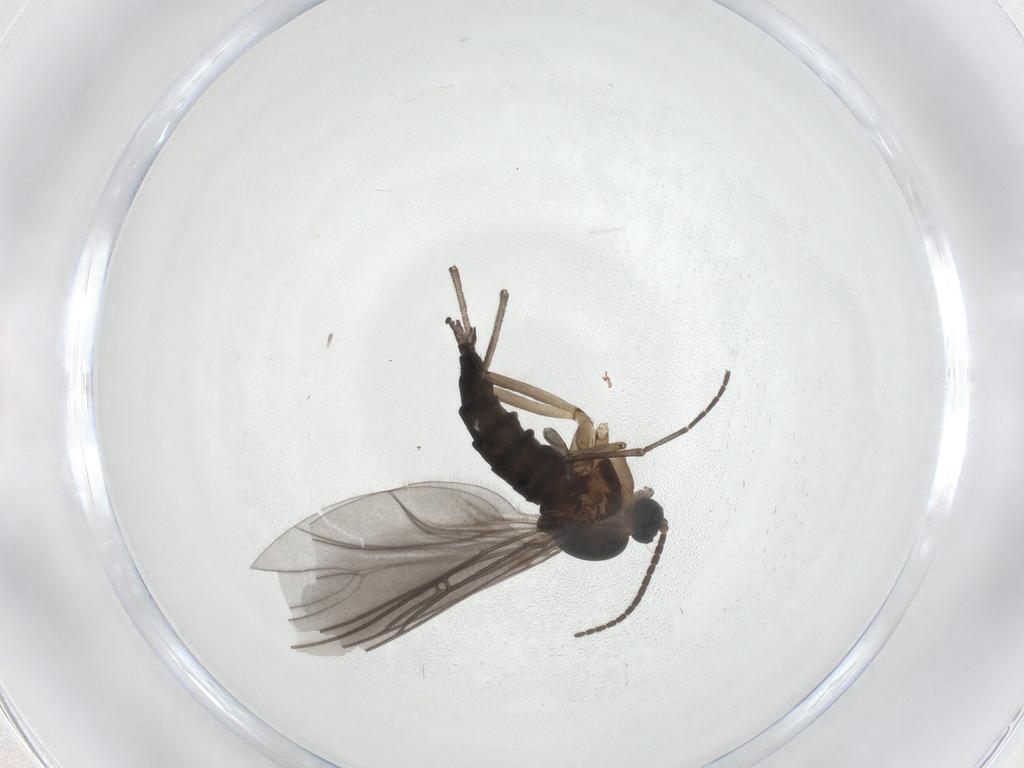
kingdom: Animalia
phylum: Arthropoda
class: Insecta
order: Diptera
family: Sciaridae
